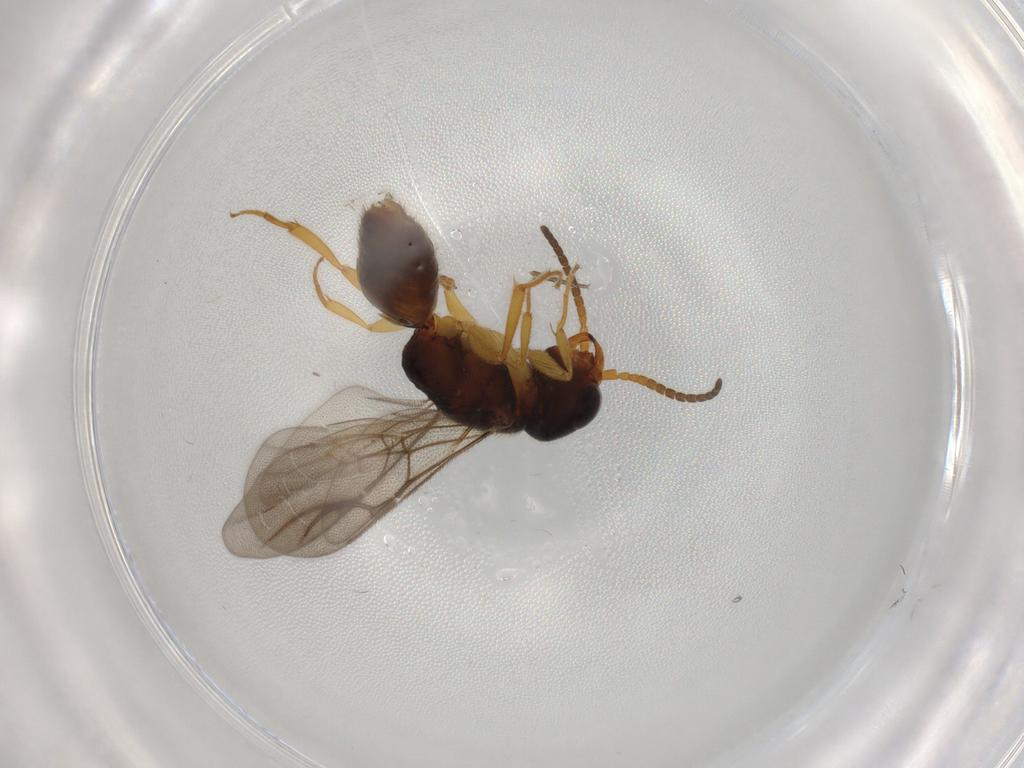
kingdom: Animalia
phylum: Arthropoda
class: Insecta
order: Hymenoptera
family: Bethylidae
